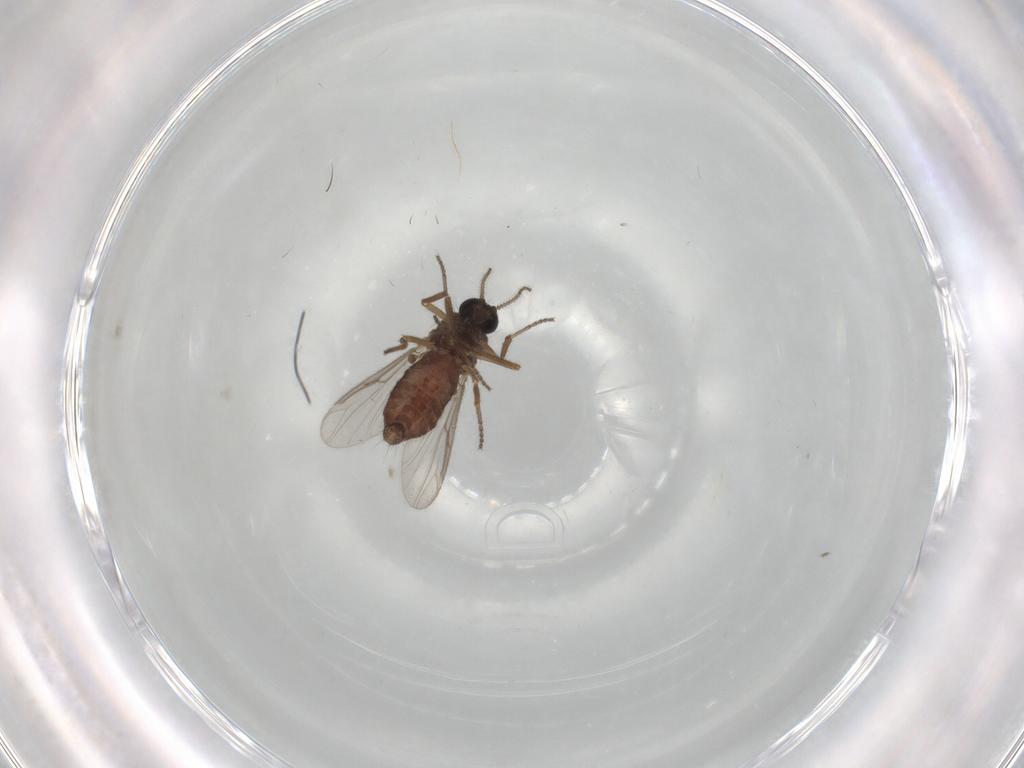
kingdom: Animalia
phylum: Arthropoda
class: Insecta
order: Diptera
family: Ceratopogonidae
